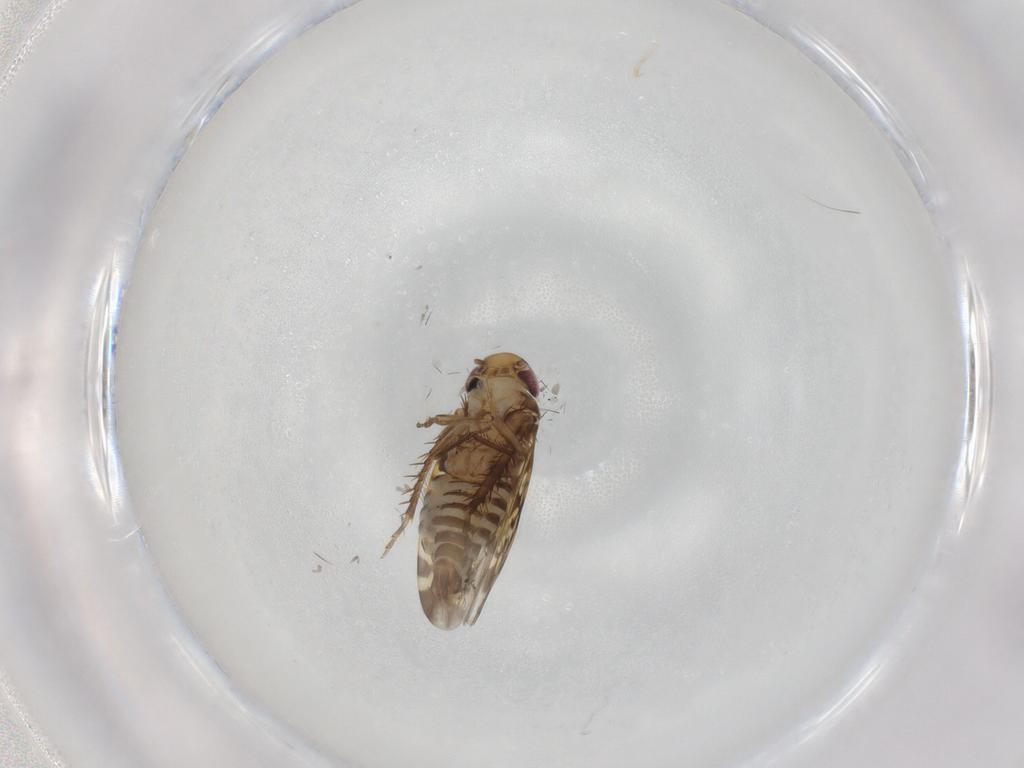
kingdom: Animalia
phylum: Arthropoda
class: Insecta
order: Hemiptera
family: Cicadellidae
